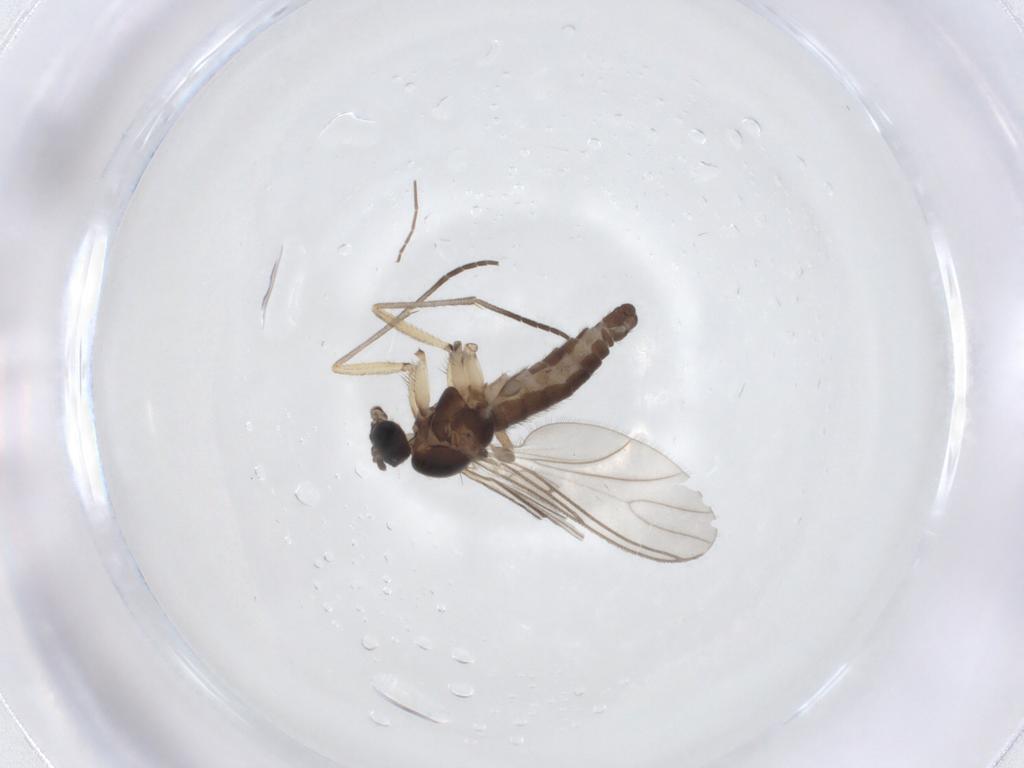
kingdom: Animalia
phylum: Arthropoda
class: Insecta
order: Diptera
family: Sciaridae
